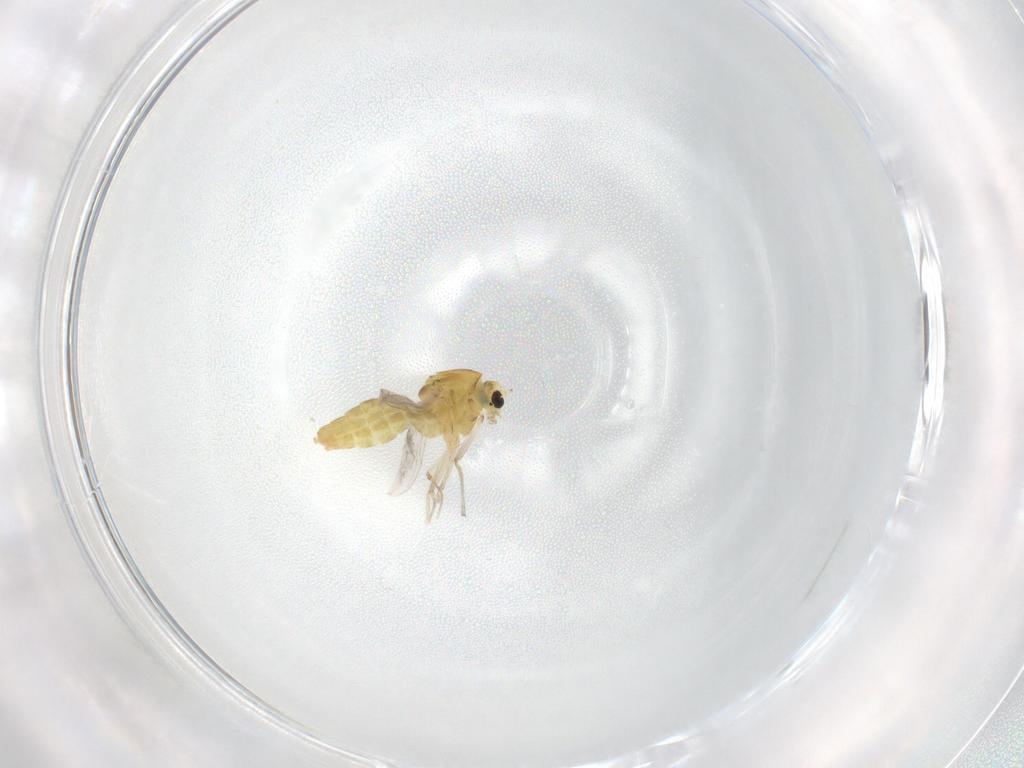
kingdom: Animalia
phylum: Arthropoda
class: Insecta
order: Diptera
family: Chironomidae
